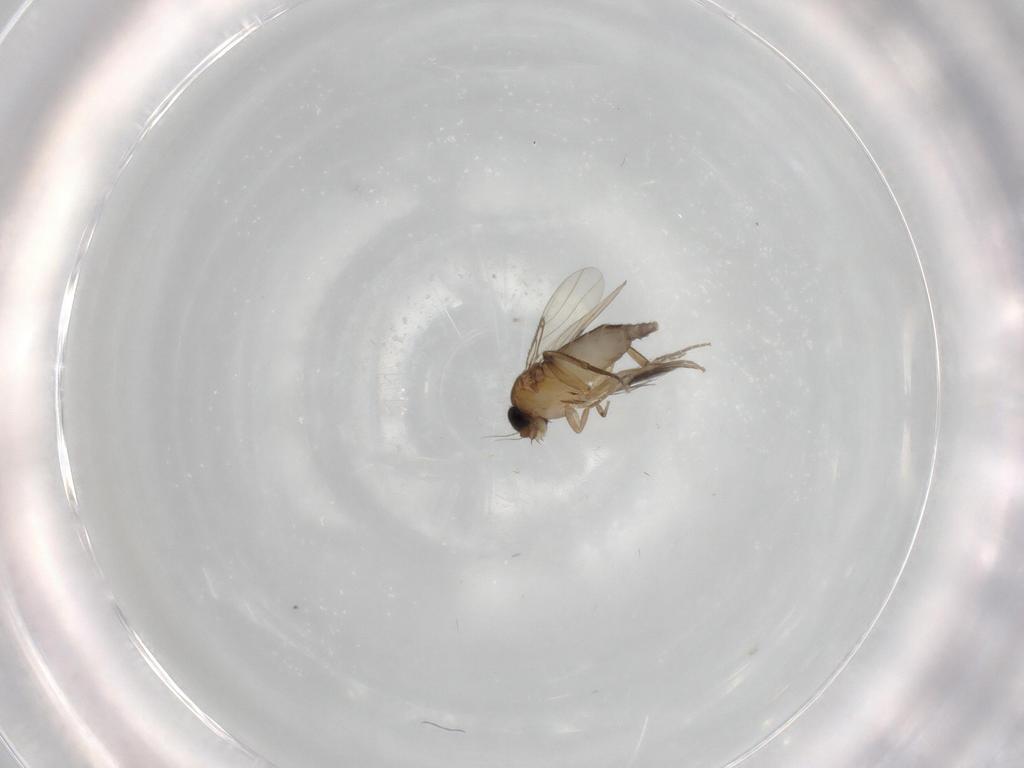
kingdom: Animalia
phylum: Arthropoda
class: Insecta
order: Diptera
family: Phoridae
